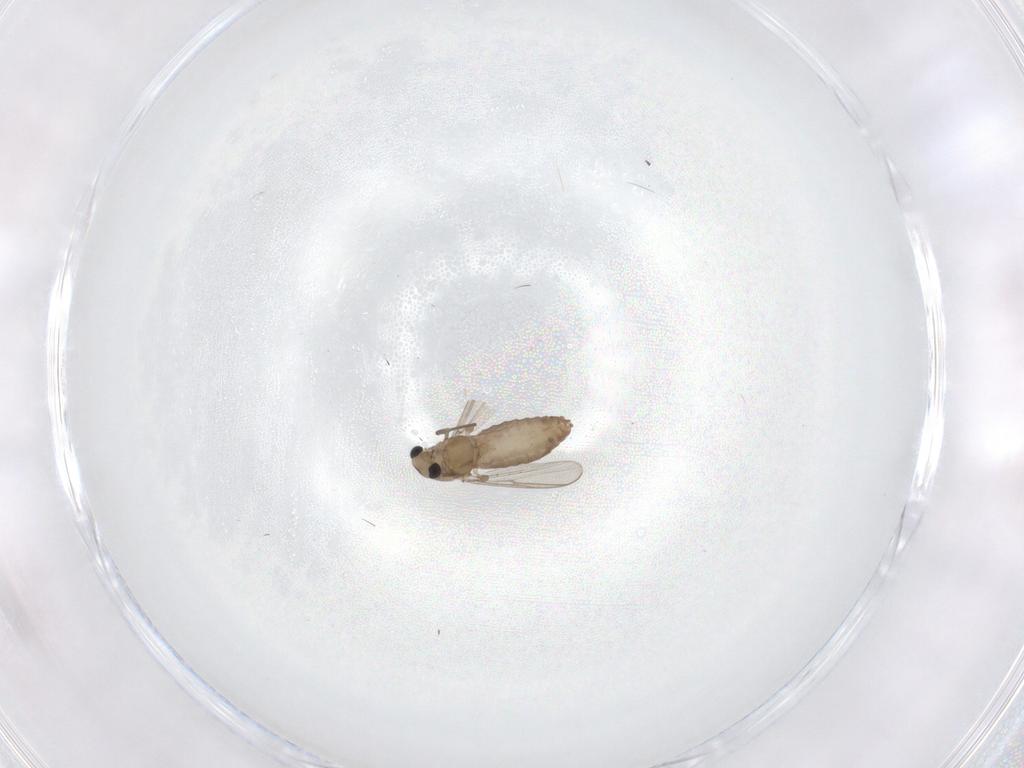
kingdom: Animalia
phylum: Arthropoda
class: Insecta
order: Diptera
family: Chironomidae
